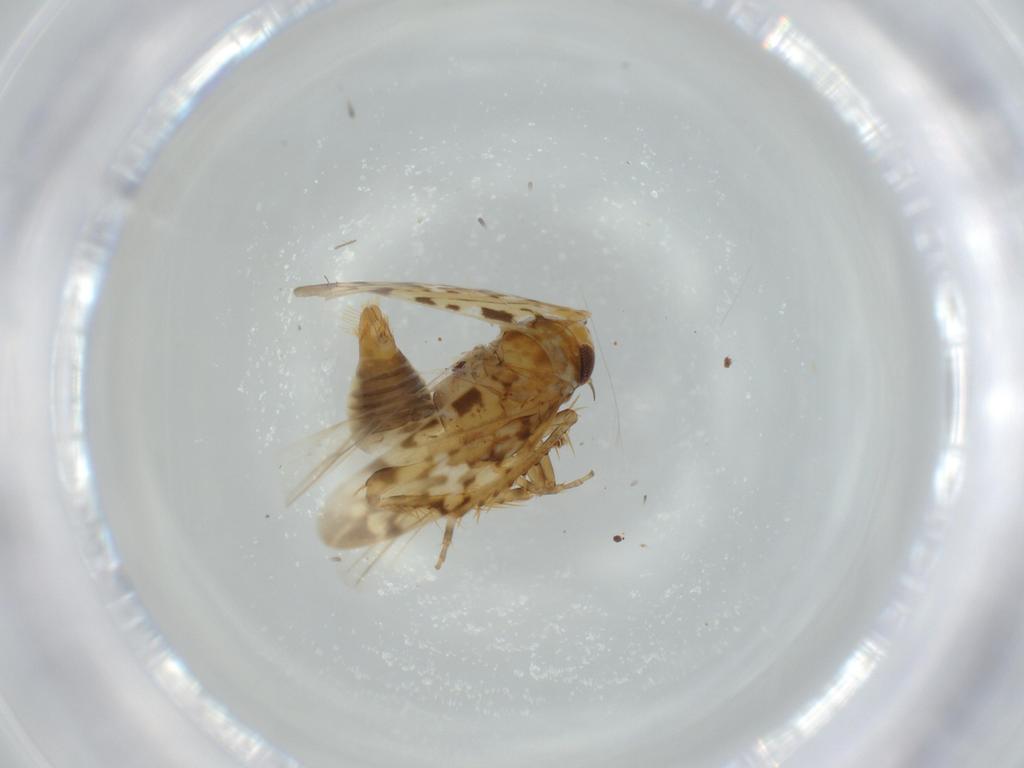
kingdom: Animalia
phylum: Arthropoda
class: Insecta
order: Hemiptera
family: Cicadellidae
